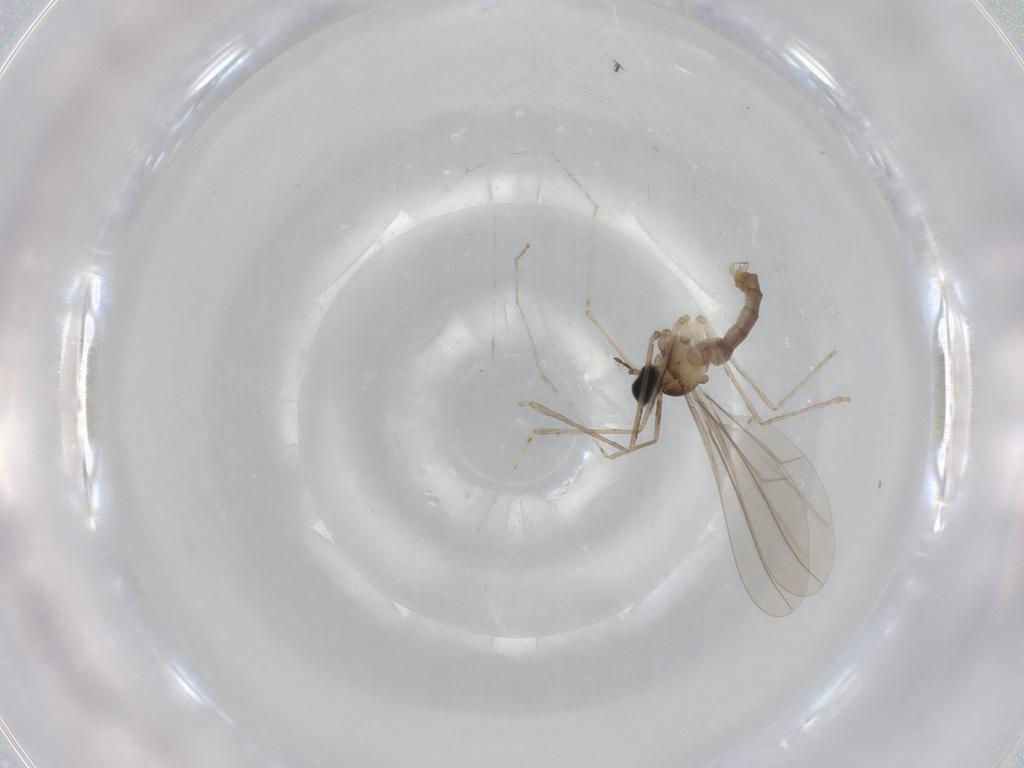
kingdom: Animalia
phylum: Arthropoda
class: Insecta
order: Diptera
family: Cecidomyiidae
